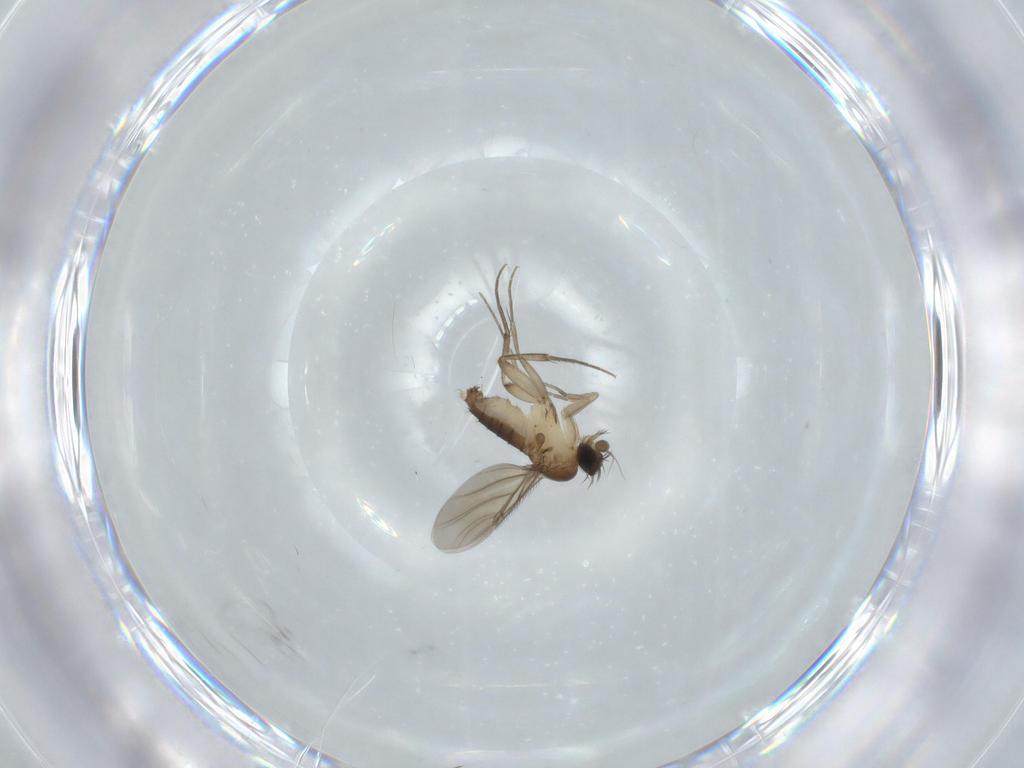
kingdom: Animalia
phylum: Arthropoda
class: Insecta
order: Diptera
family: Phoridae
